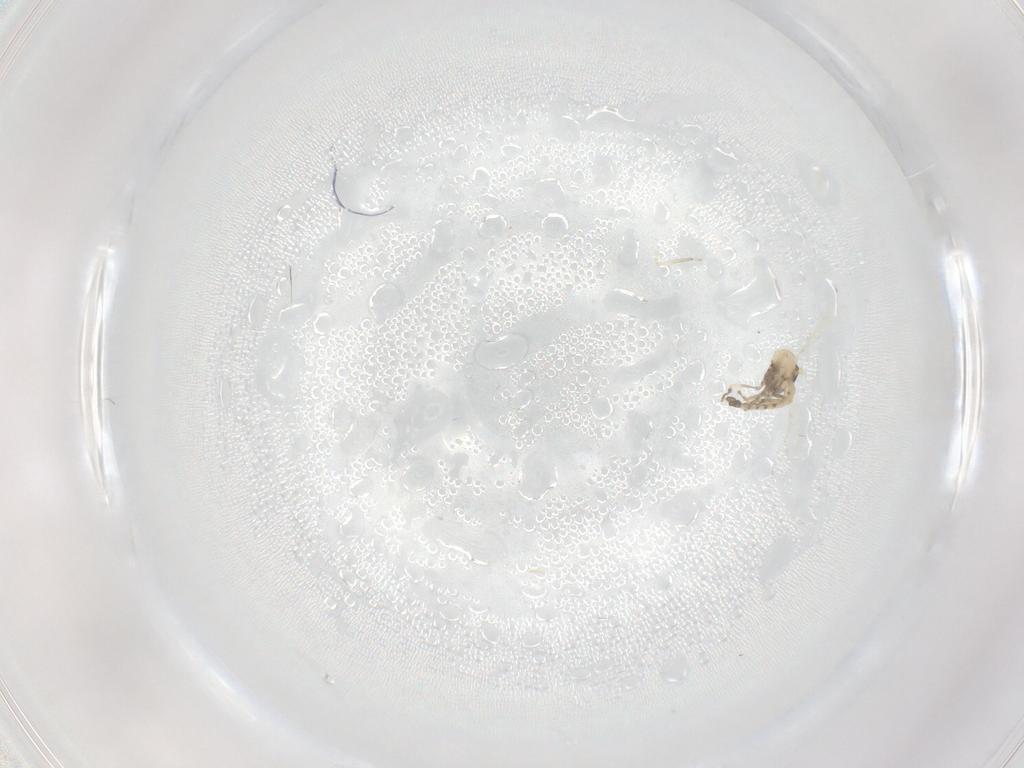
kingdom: Animalia
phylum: Arthropoda
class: Insecta
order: Diptera
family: Ceratopogonidae
